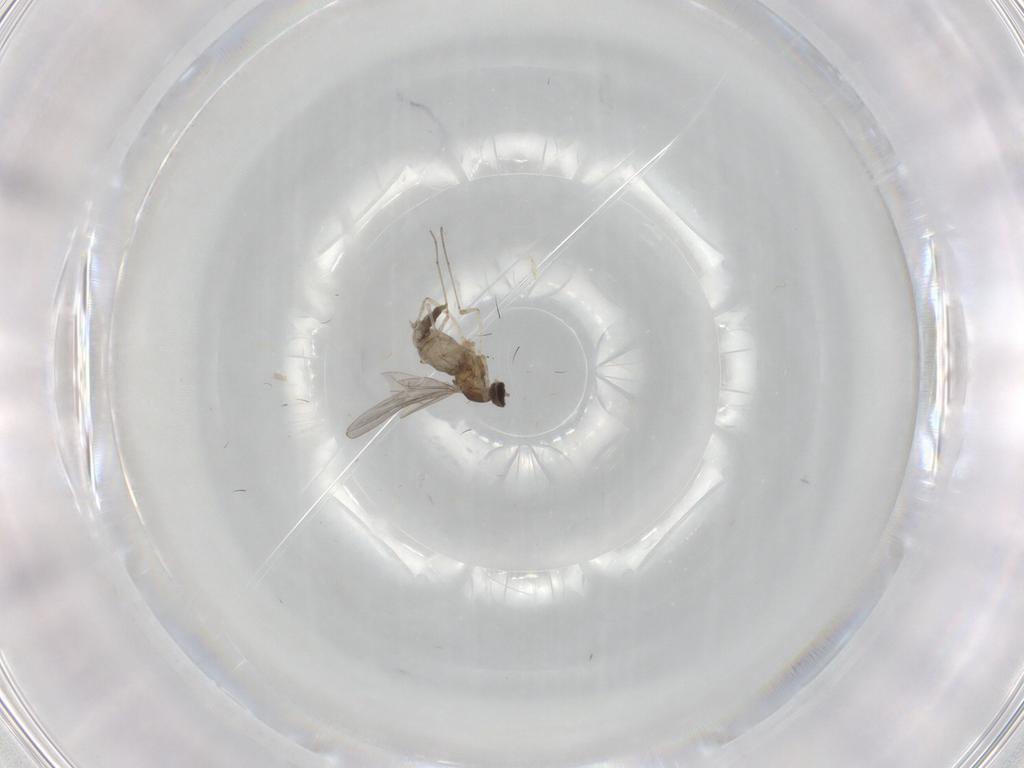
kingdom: Animalia
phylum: Arthropoda
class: Insecta
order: Diptera
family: Cecidomyiidae
